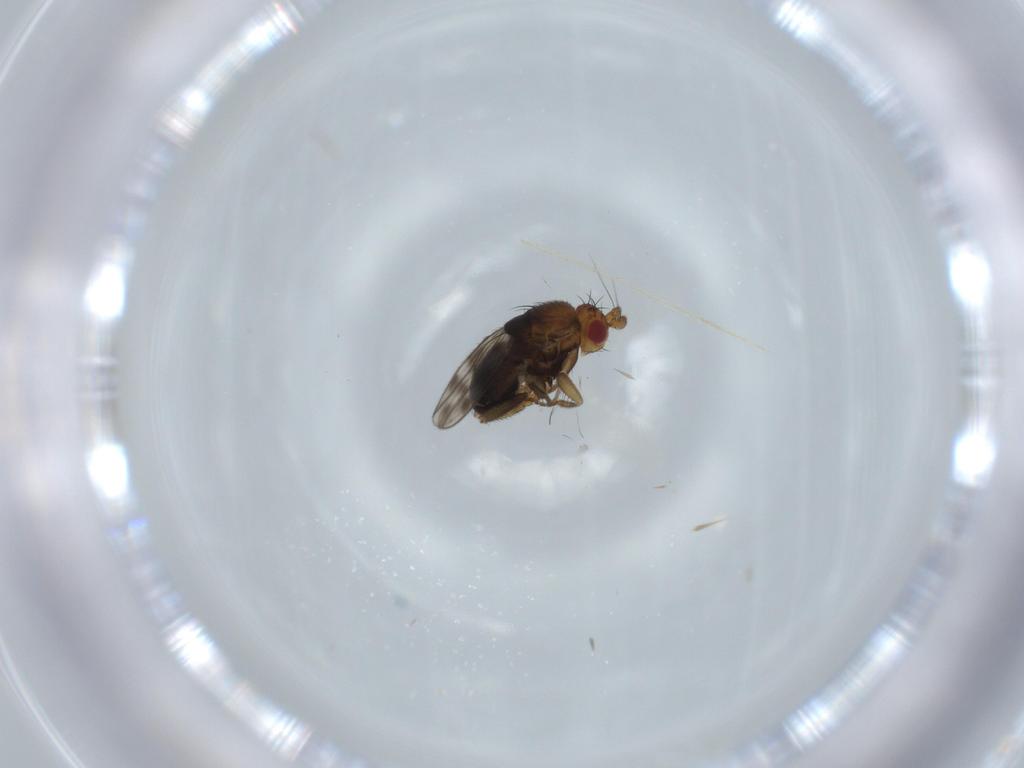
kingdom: Animalia
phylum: Arthropoda
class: Insecta
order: Diptera
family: Sphaeroceridae
